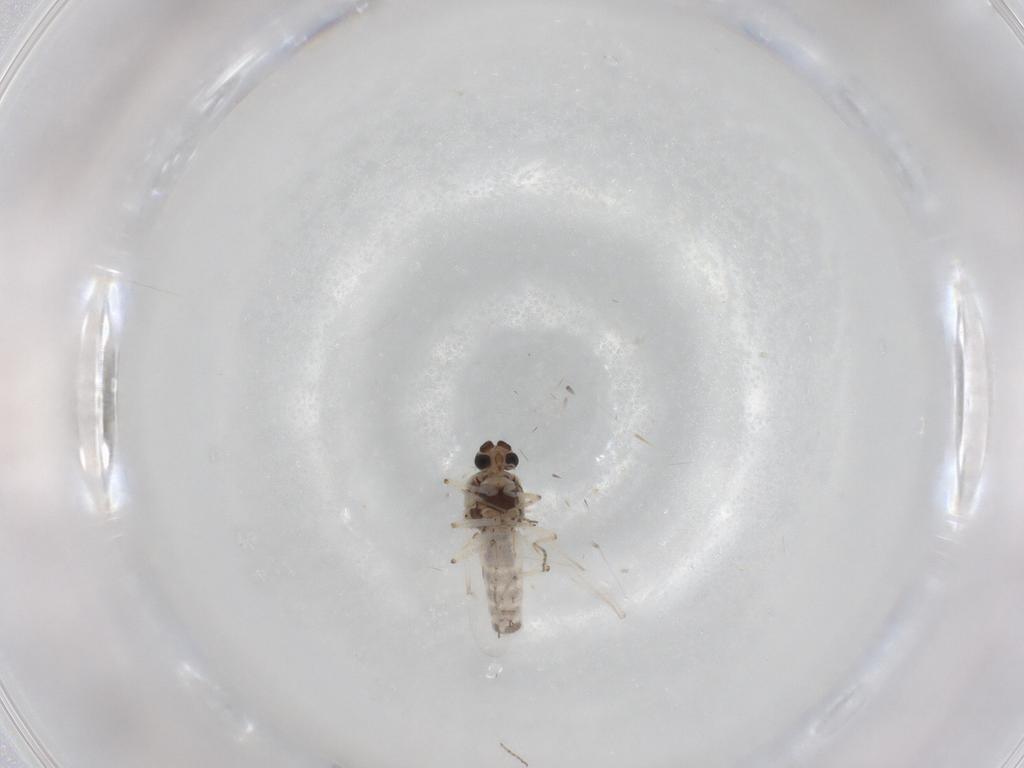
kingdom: Animalia
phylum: Arthropoda
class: Insecta
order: Diptera
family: Ceratopogonidae
